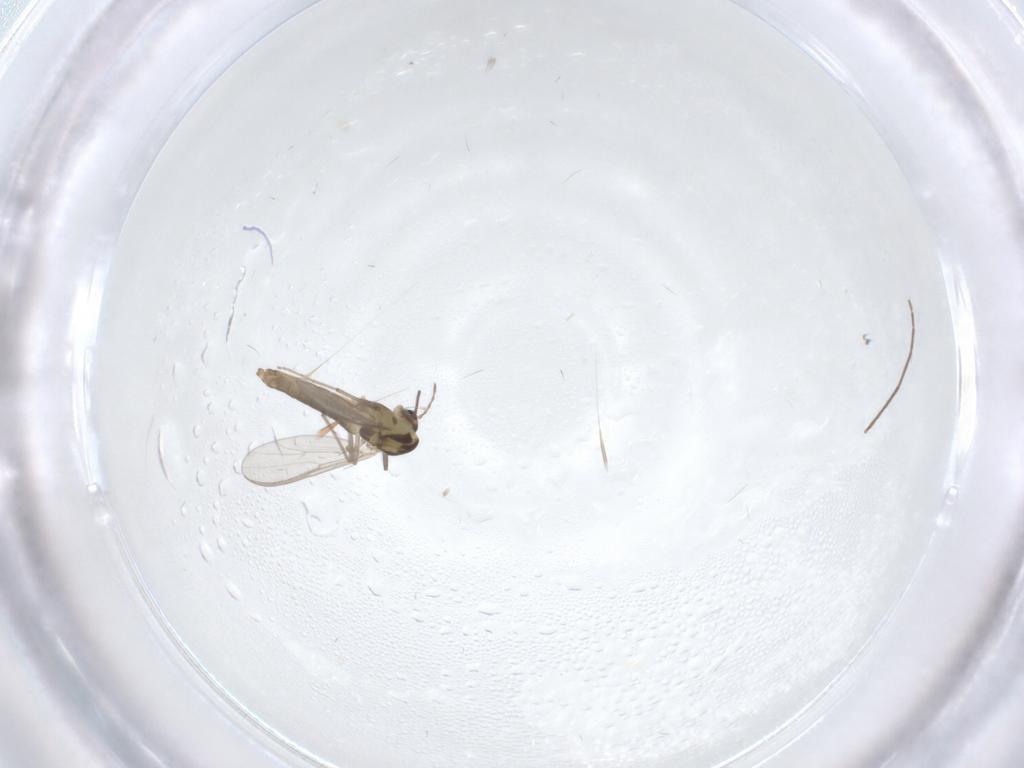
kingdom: Animalia
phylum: Arthropoda
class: Insecta
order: Diptera
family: Chironomidae
